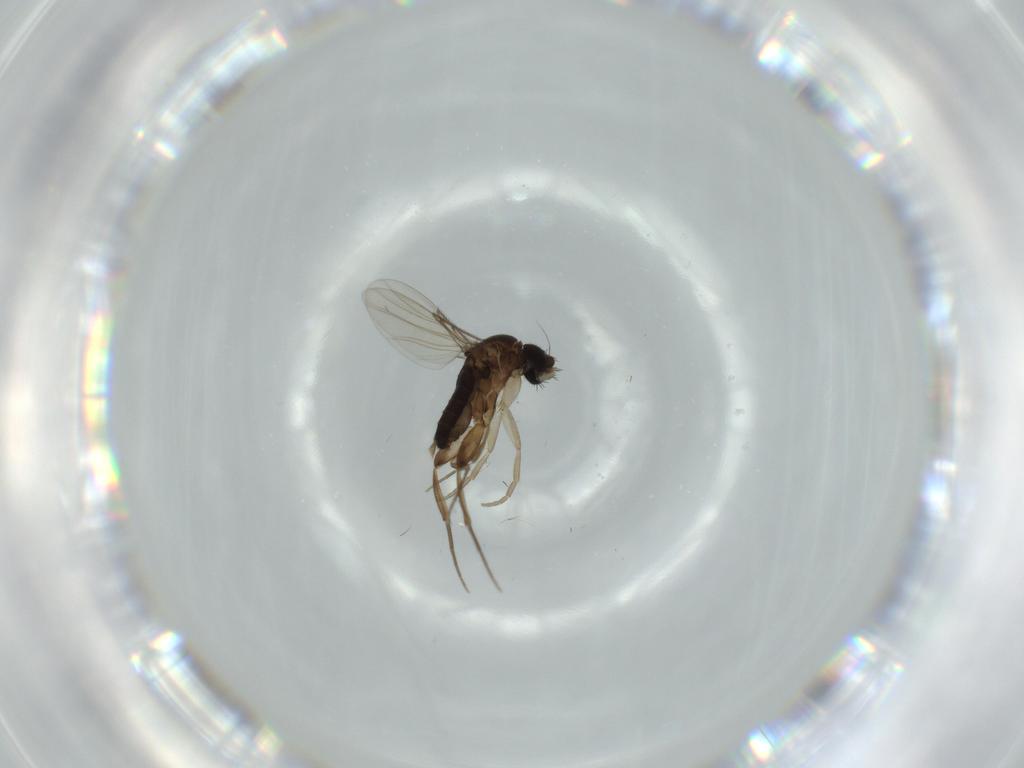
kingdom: Animalia
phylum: Arthropoda
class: Insecta
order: Diptera
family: Phoridae
